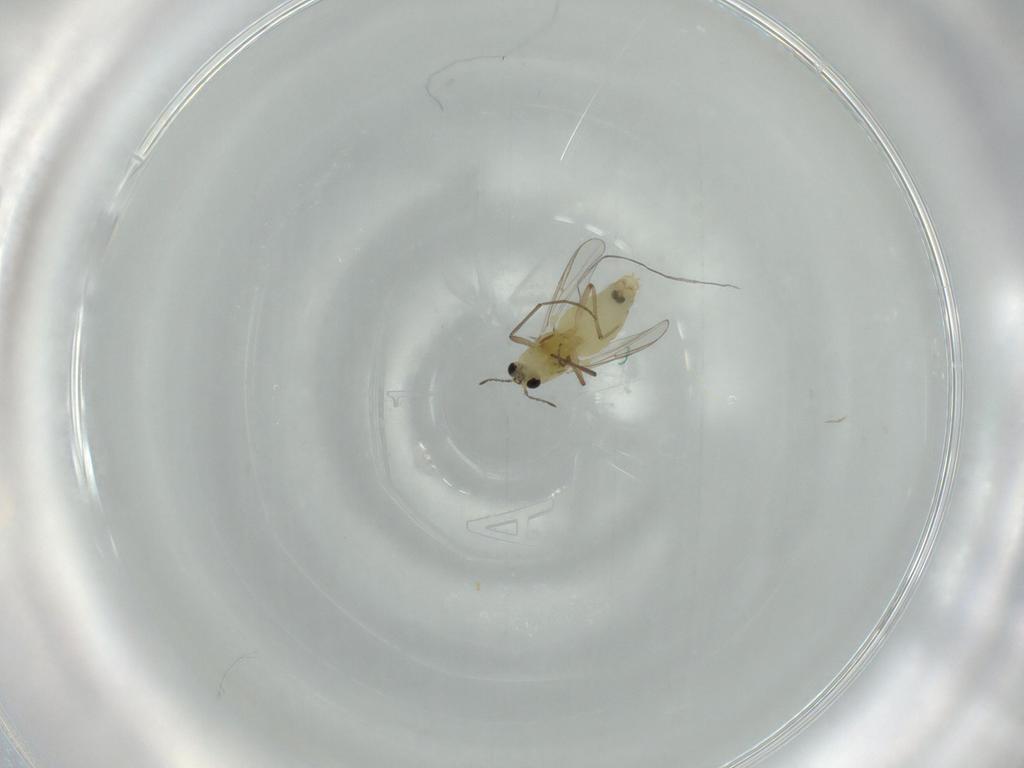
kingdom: Animalia
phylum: Arthropoda
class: Insecta
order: Diptera
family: Chironomidae
